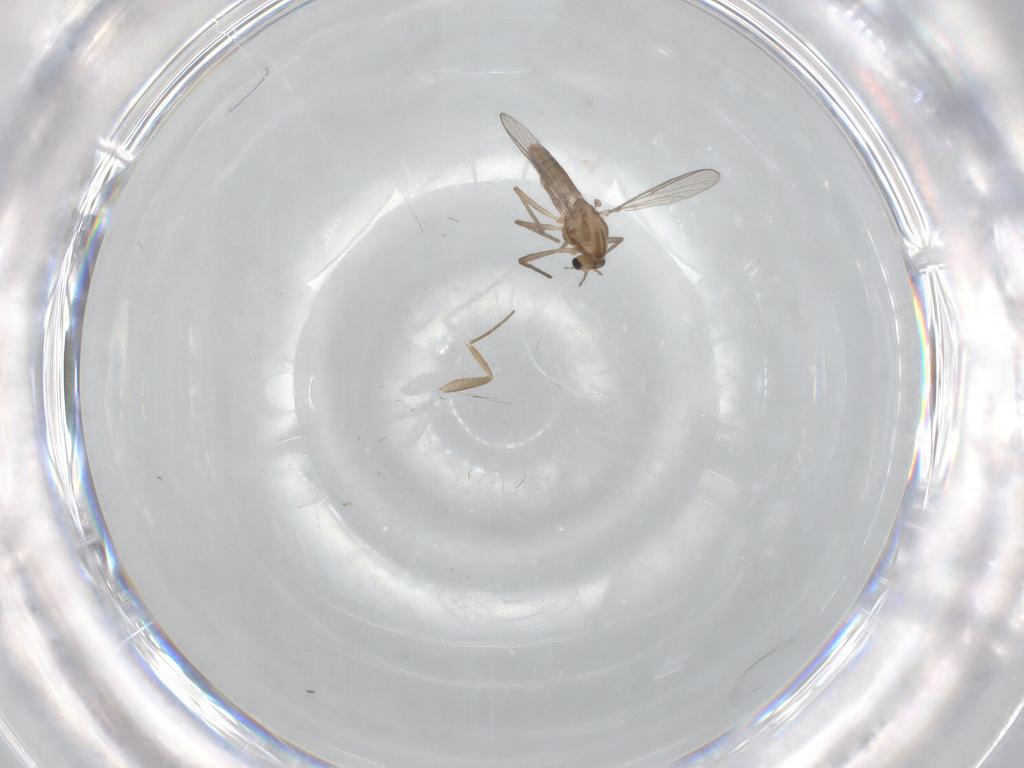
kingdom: Animalia
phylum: Arthropoda
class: Insecta
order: Diptera
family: Chironomidae
